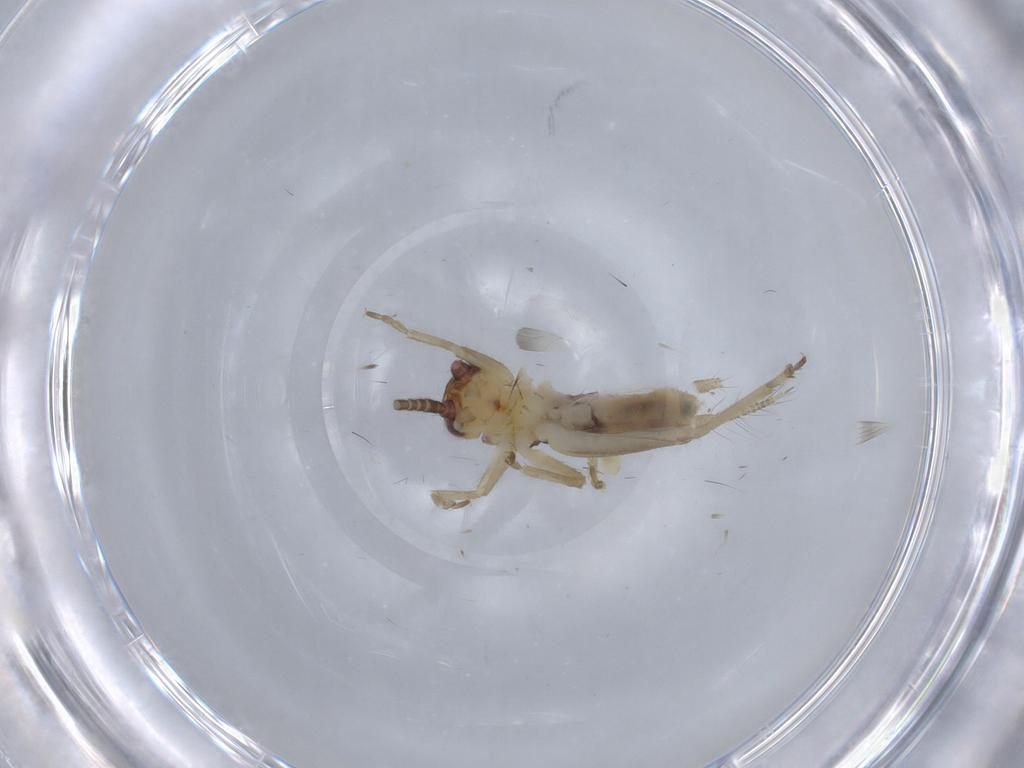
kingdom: Animalia
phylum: Arthropoda
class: Insecta
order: Orthoptera
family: Gryllidae
